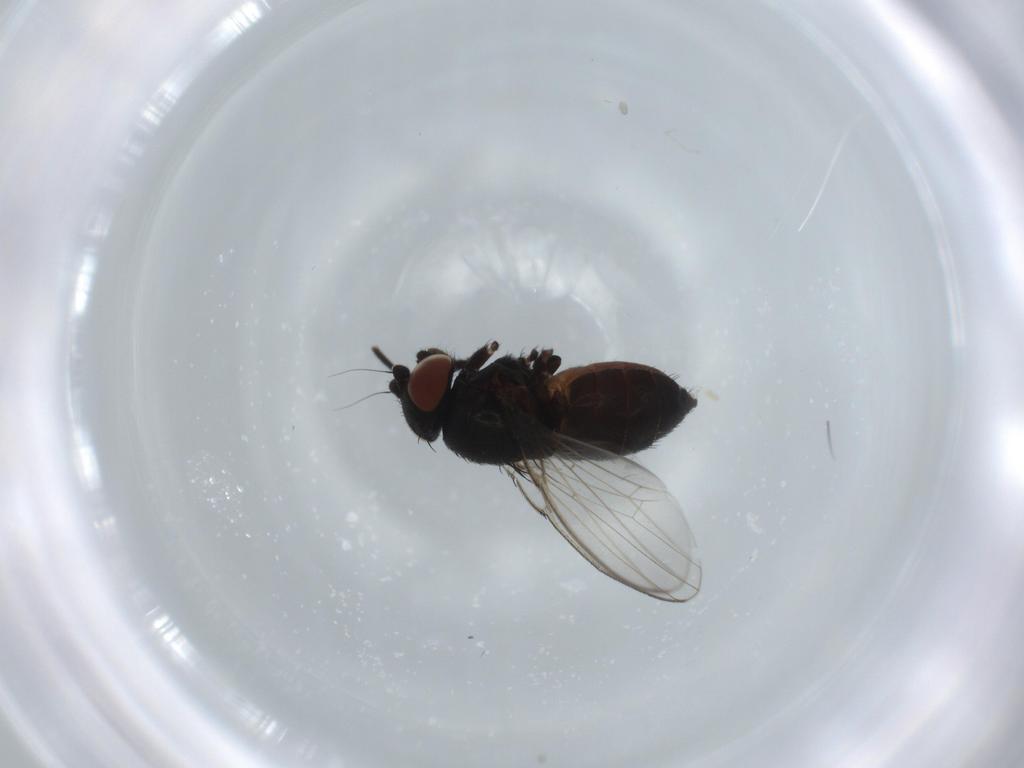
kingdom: Animalia
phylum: Arthropoda
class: Insecta
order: Diptera
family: Milichiidae
